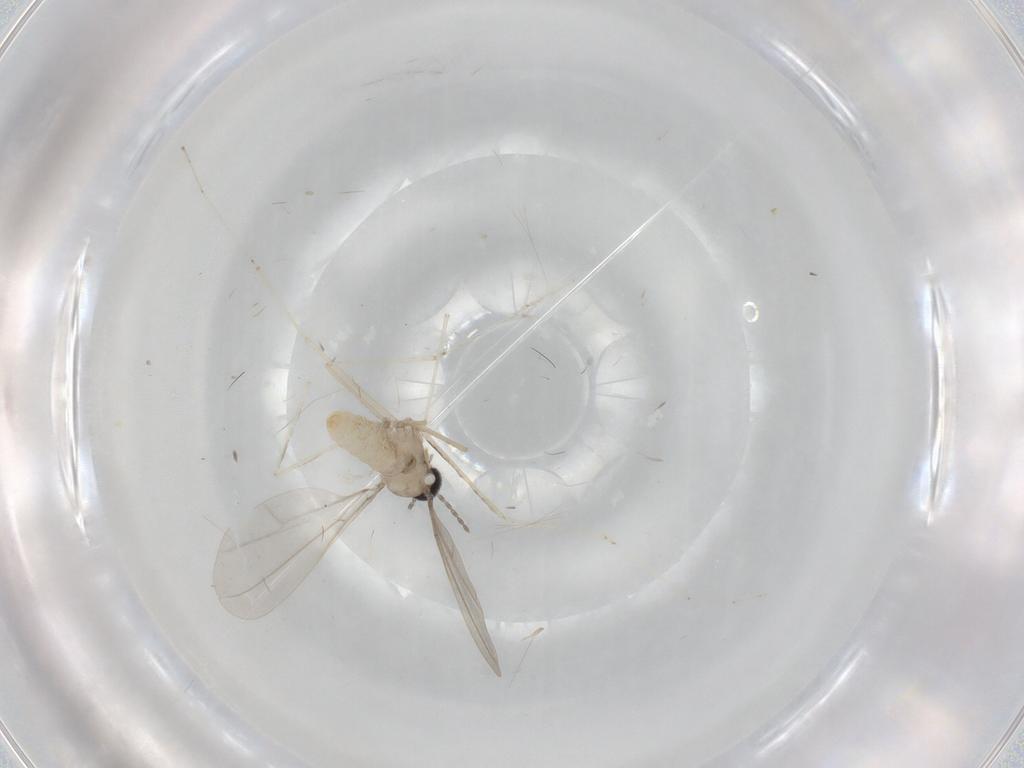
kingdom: Animalia
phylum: Arthropoda
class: Insecta
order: Diptera
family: Cecidomyiidae
